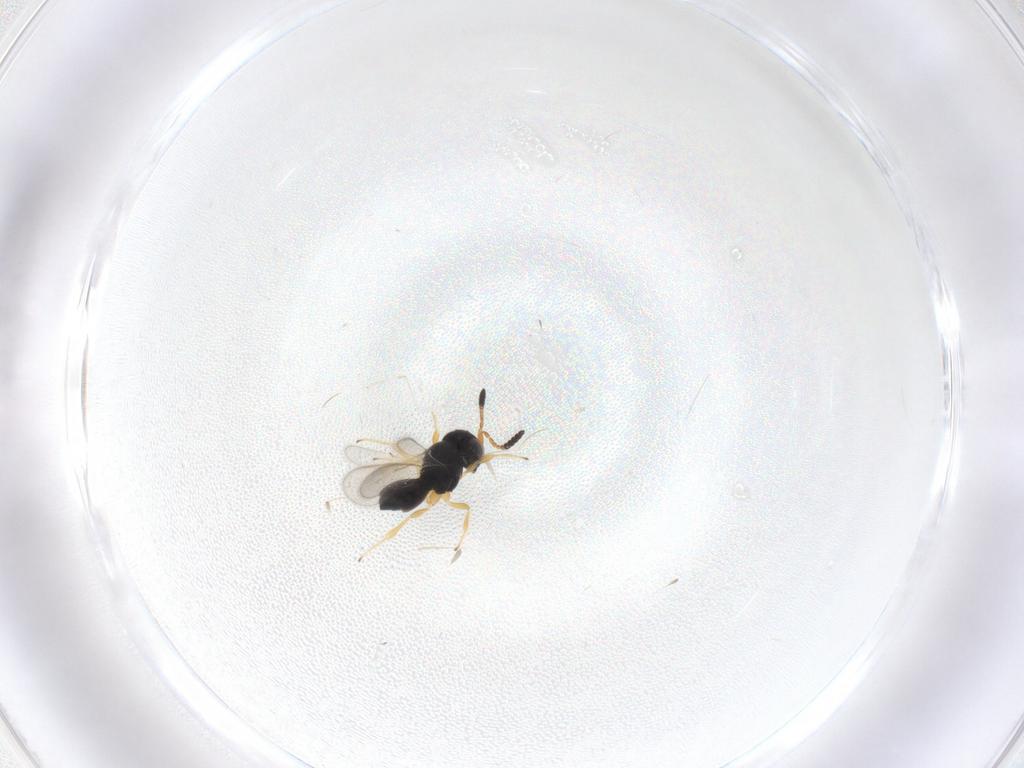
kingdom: Animalia
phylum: Arthropoda
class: Insecta
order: Hymenoptera
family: Scelionidae
